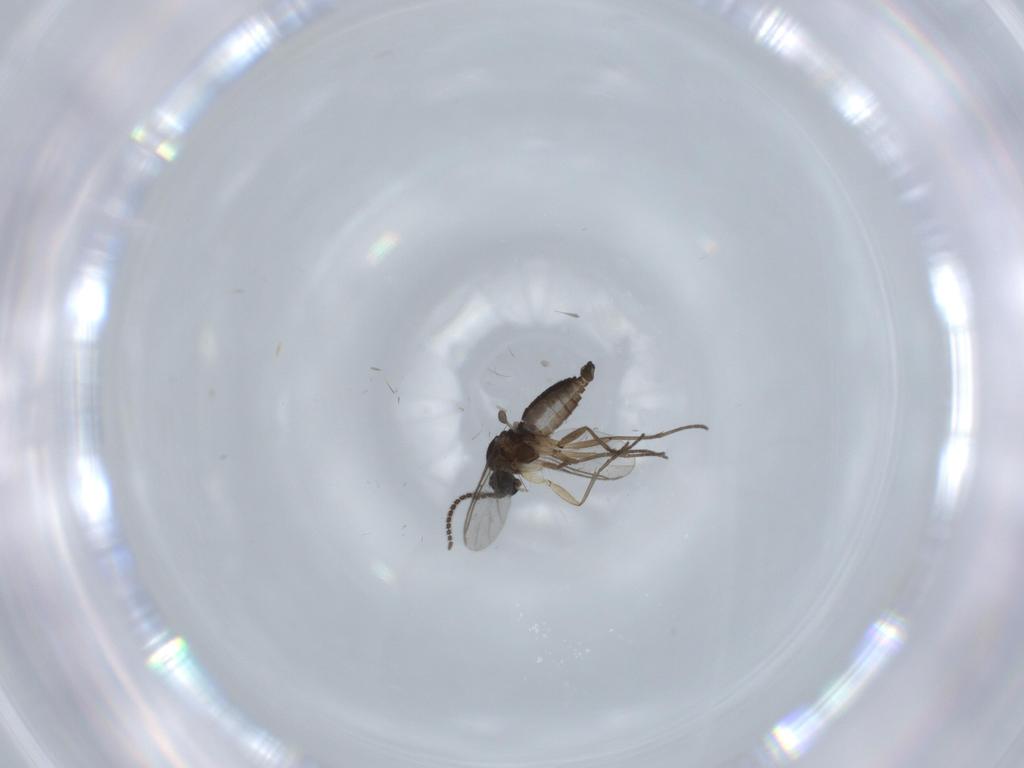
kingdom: Animalia
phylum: Arthropoda
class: Insecta
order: Diptera
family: Sciaridae
